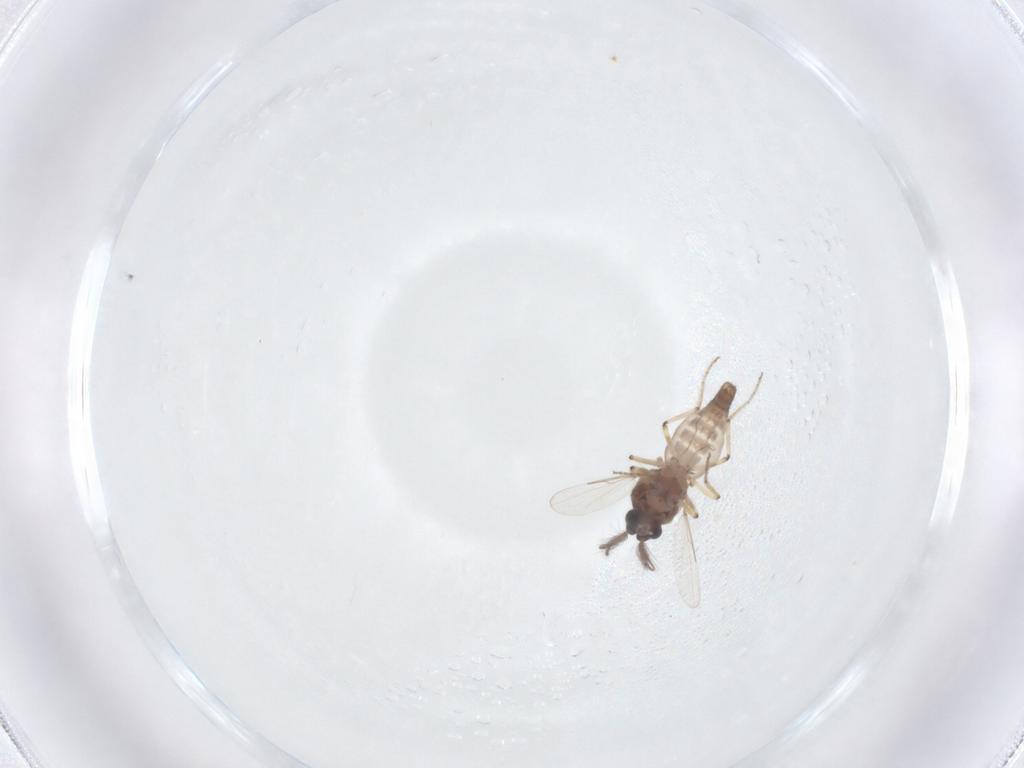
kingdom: Animalia
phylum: Arthropoda
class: Insecta
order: Diptera
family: Ceratopogonidae
